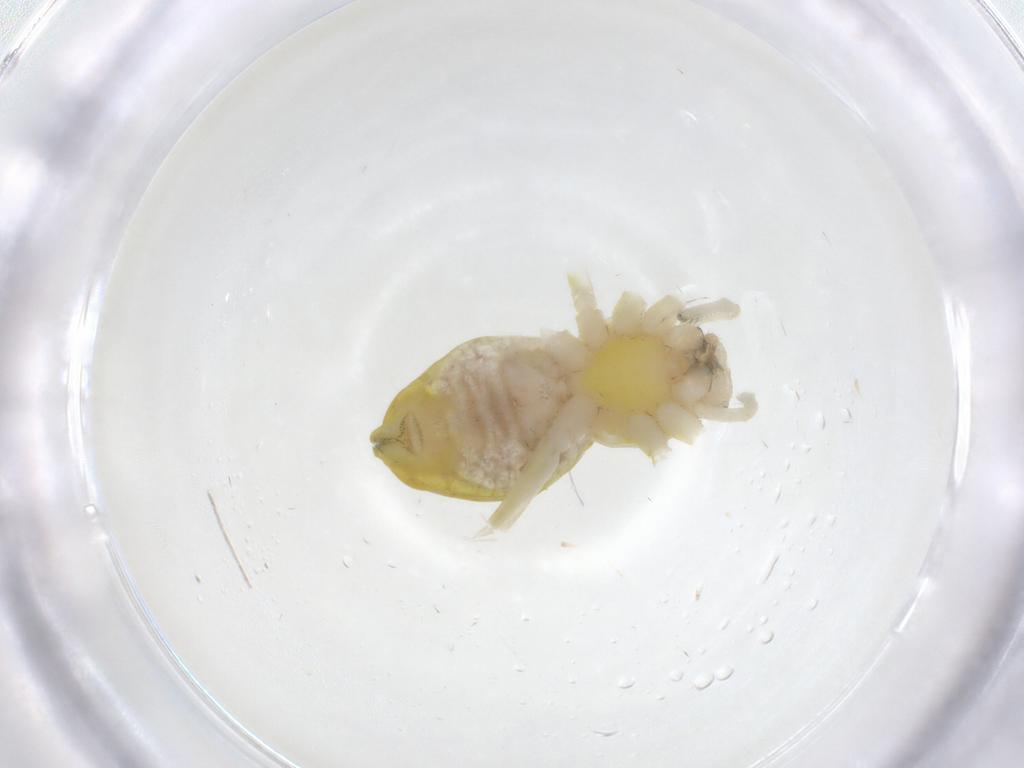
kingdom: Animalia
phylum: Arthropoda
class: Arachnida
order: Araneae
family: Dictynidae
